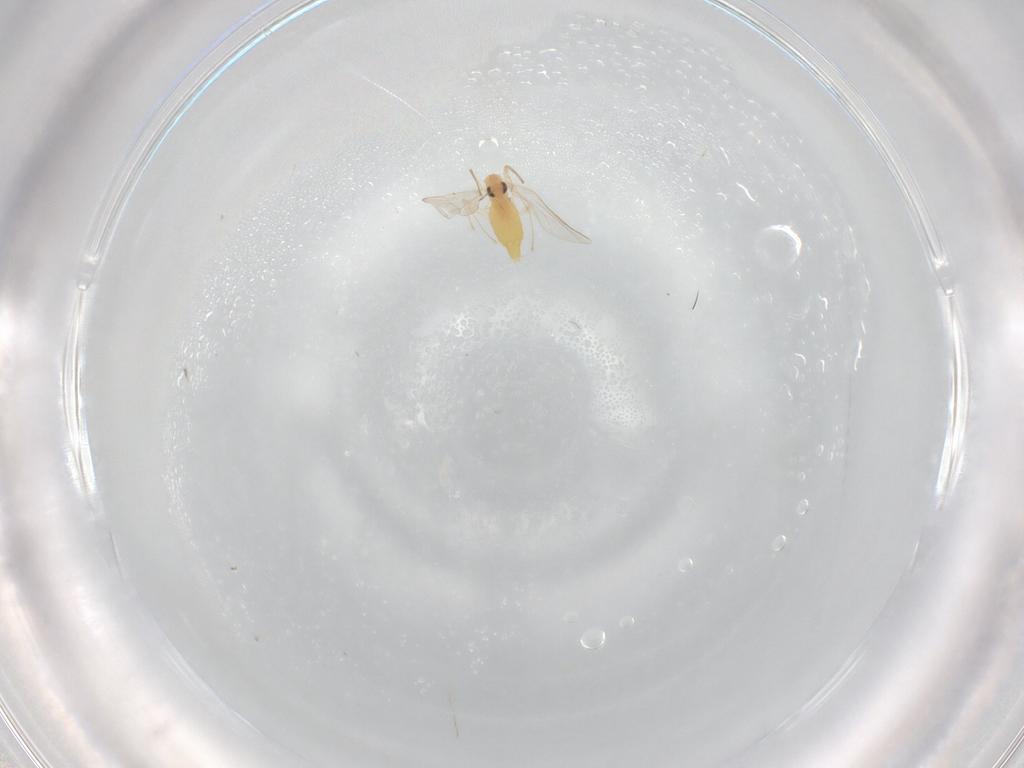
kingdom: Animalia
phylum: Arthropoda
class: Insecta
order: Diptera
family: Chironomidae
